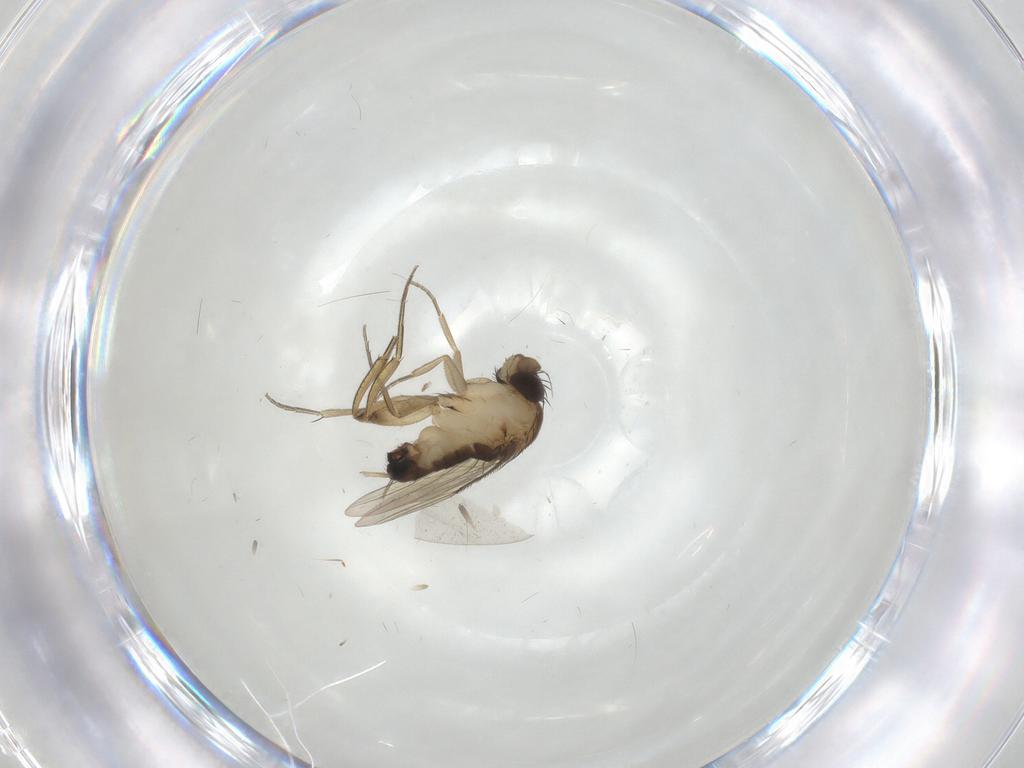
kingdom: Animalia
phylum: Arthropoda
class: Insecta
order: Diptera
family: Phoridae
